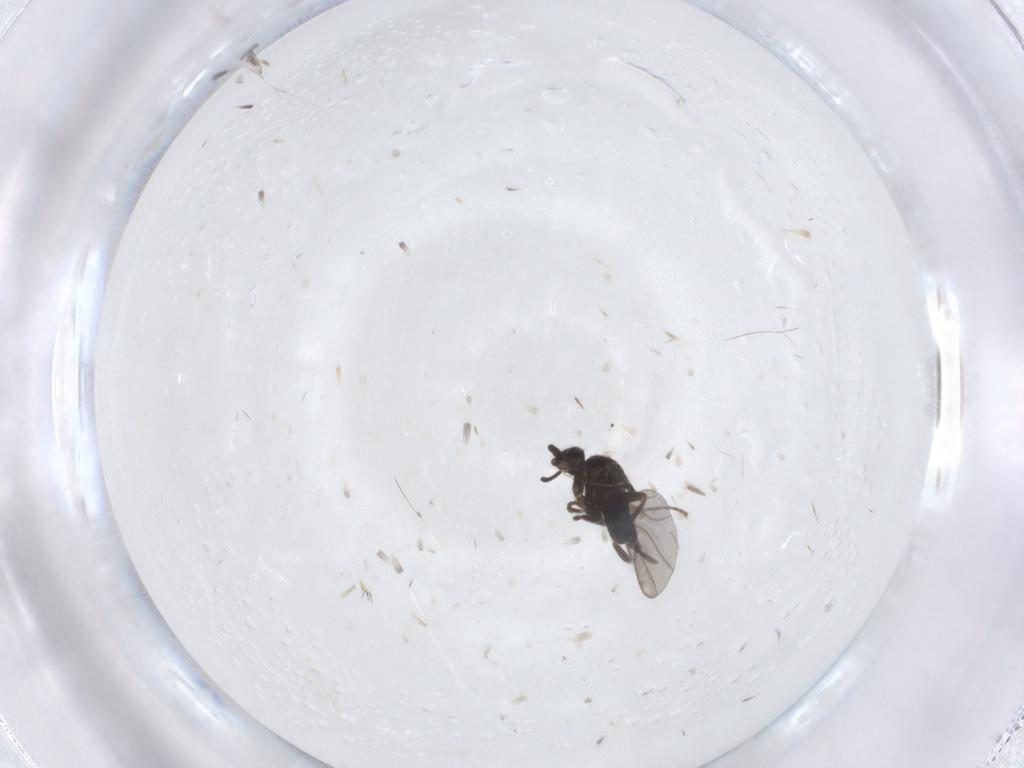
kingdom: Animalia
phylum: Arthropoda
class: Insecta
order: Diptera
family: Phoridae
